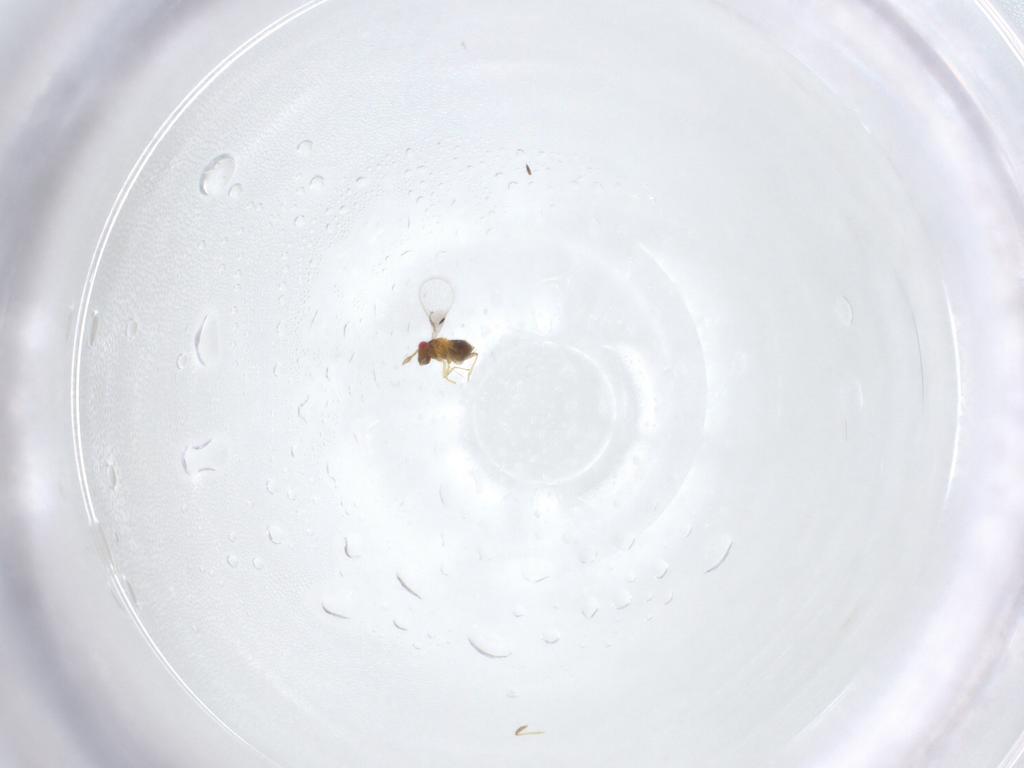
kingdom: Animalia
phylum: Arthropoda
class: Insecta
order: Hymenoptera
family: Trichogrammatidae
